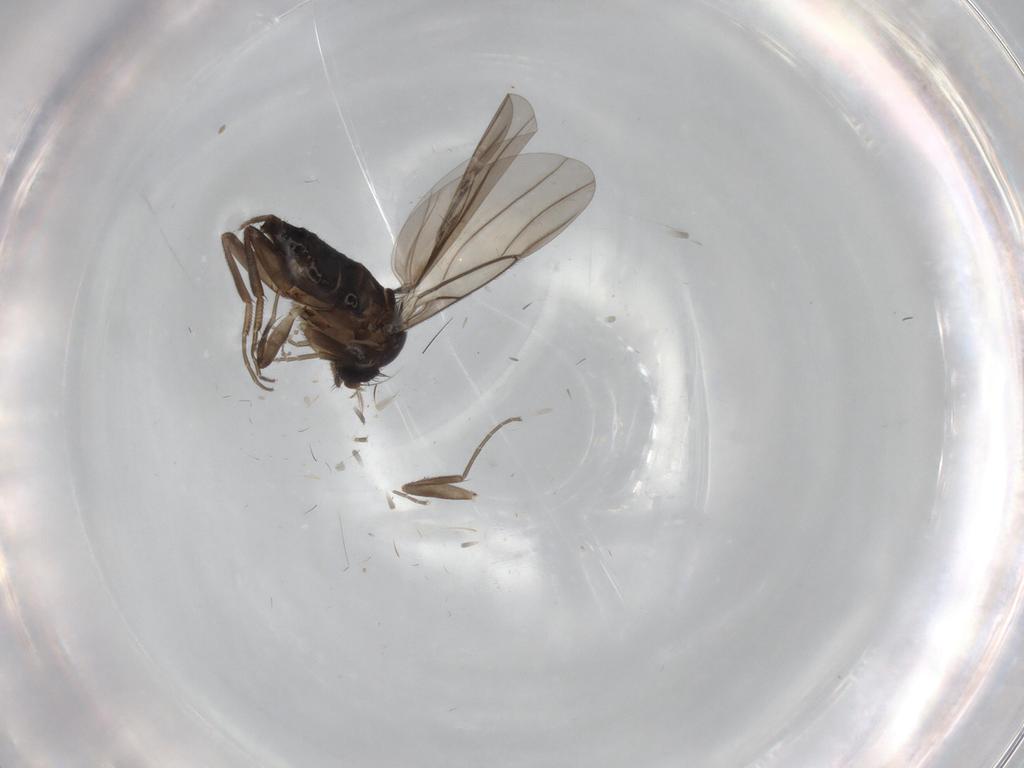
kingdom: Animalia
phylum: Arthropoda
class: Insecta
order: Diptera
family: Phoridae
